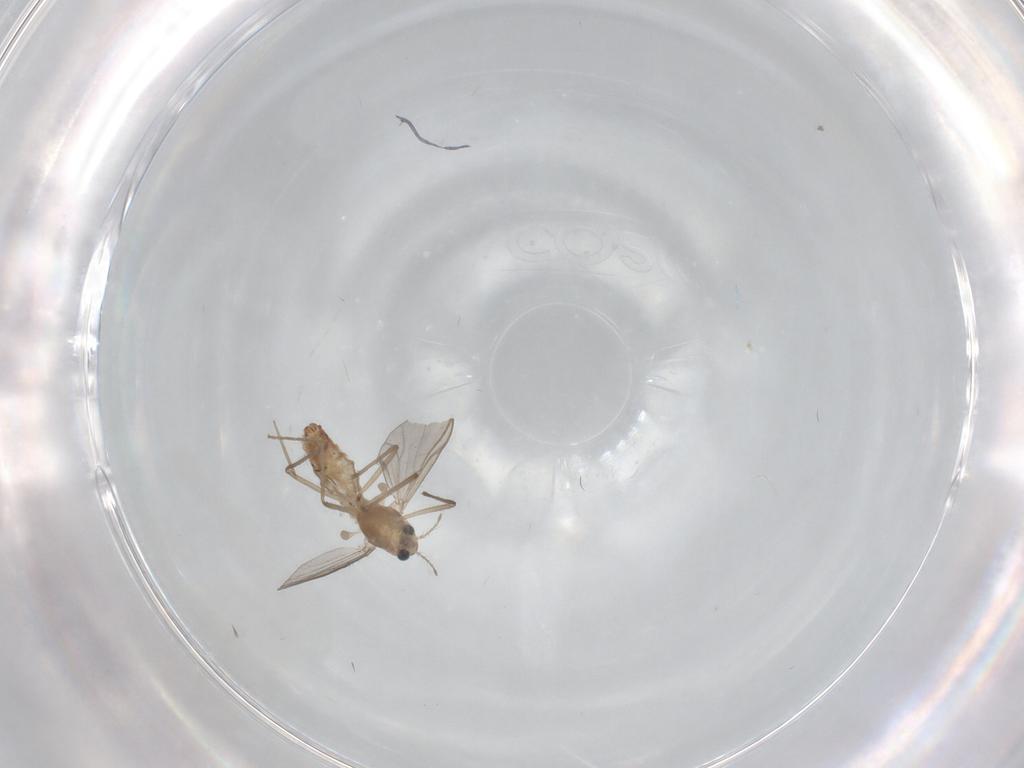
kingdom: Animalia
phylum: Arthropoda
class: Insecta
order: Diptera
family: Chironomidae
